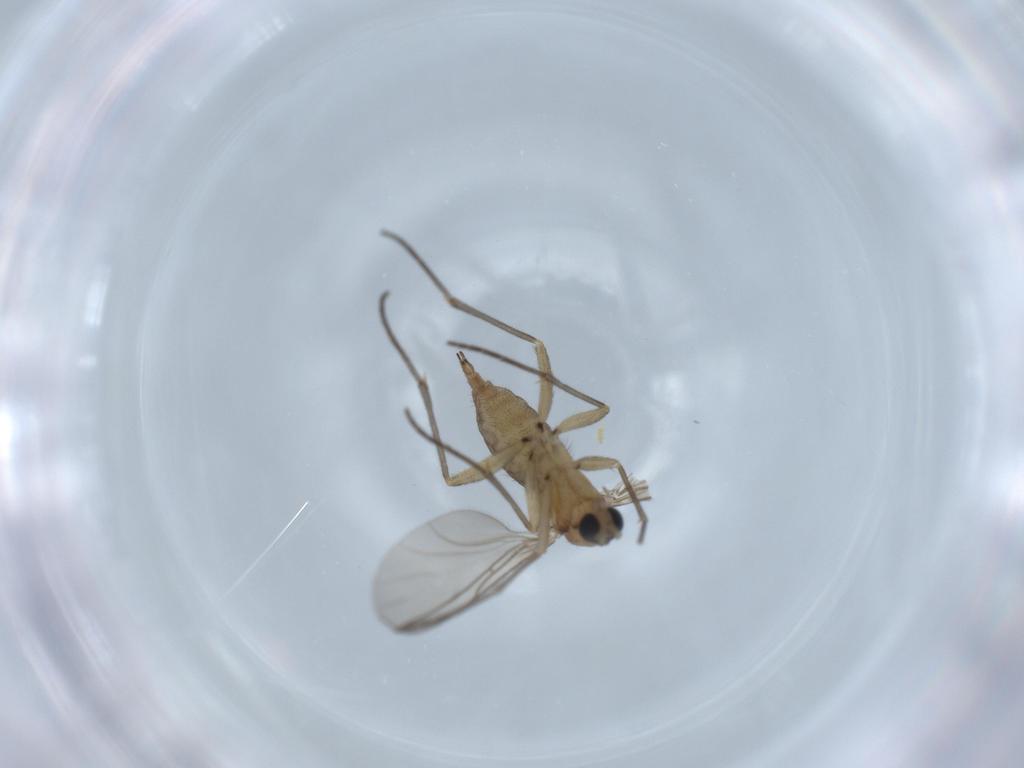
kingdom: Animalia
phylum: Arthropoda
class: Insecta
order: Diptera
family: Sciaridae
